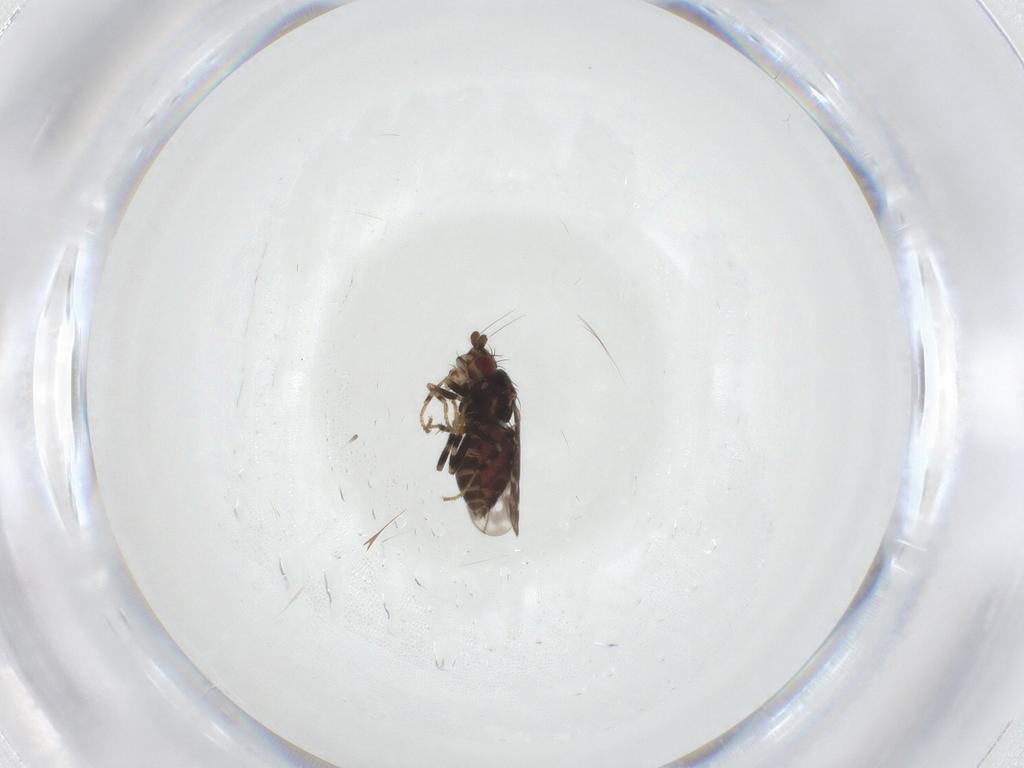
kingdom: Animalia
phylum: Arthropoda
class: Insecta
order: Diptera
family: Sphaeroceridae
